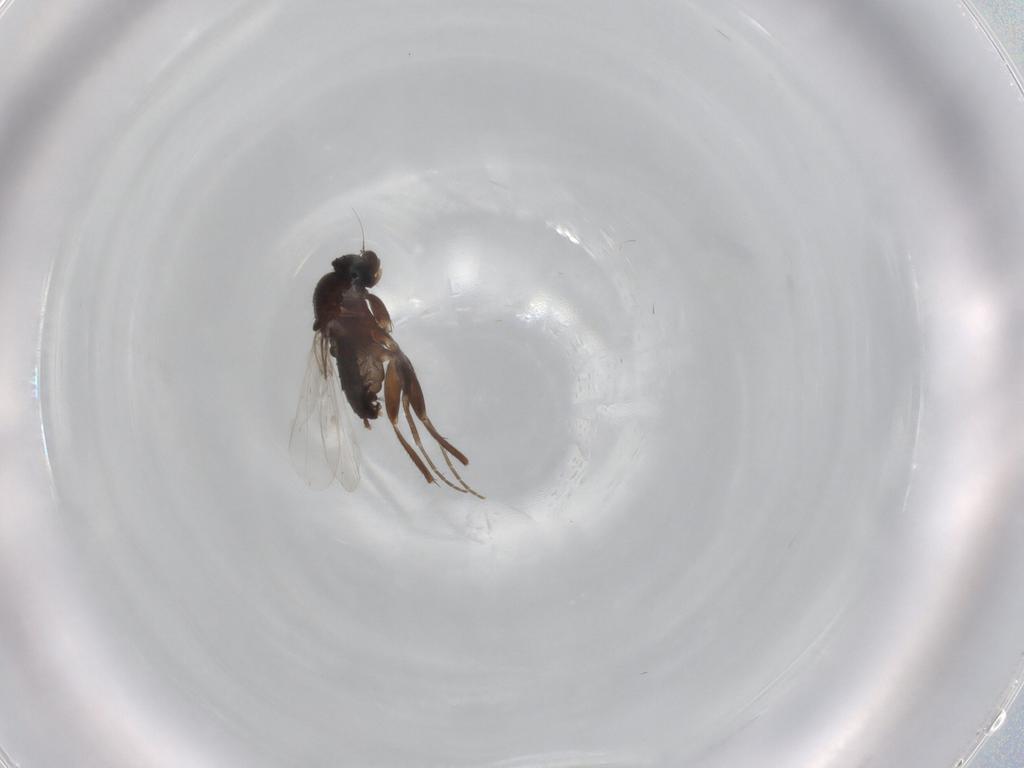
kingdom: Animalia
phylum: Arthropoda
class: Insecta
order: Diptera
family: Phoridae
